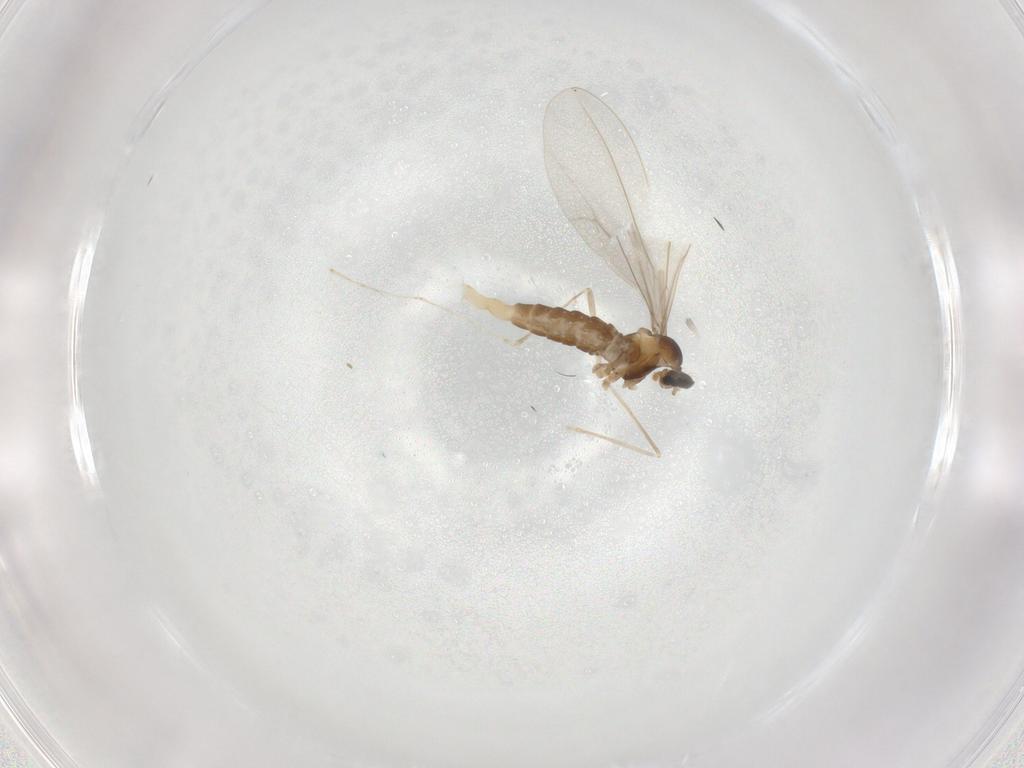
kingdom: Animalia
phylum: Arthropoda
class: Insecta
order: Diptera
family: Cecidomyiidae
